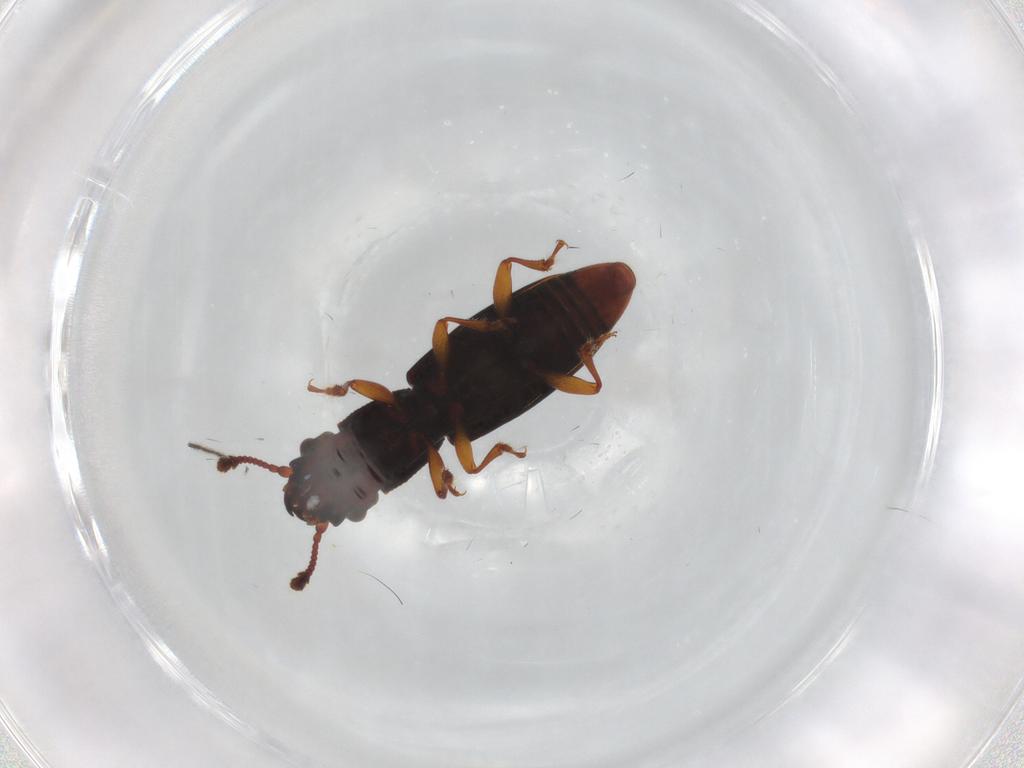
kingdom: Animalia
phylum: Arthropoda
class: Insecta
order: Coleoptera
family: Monotomidae
